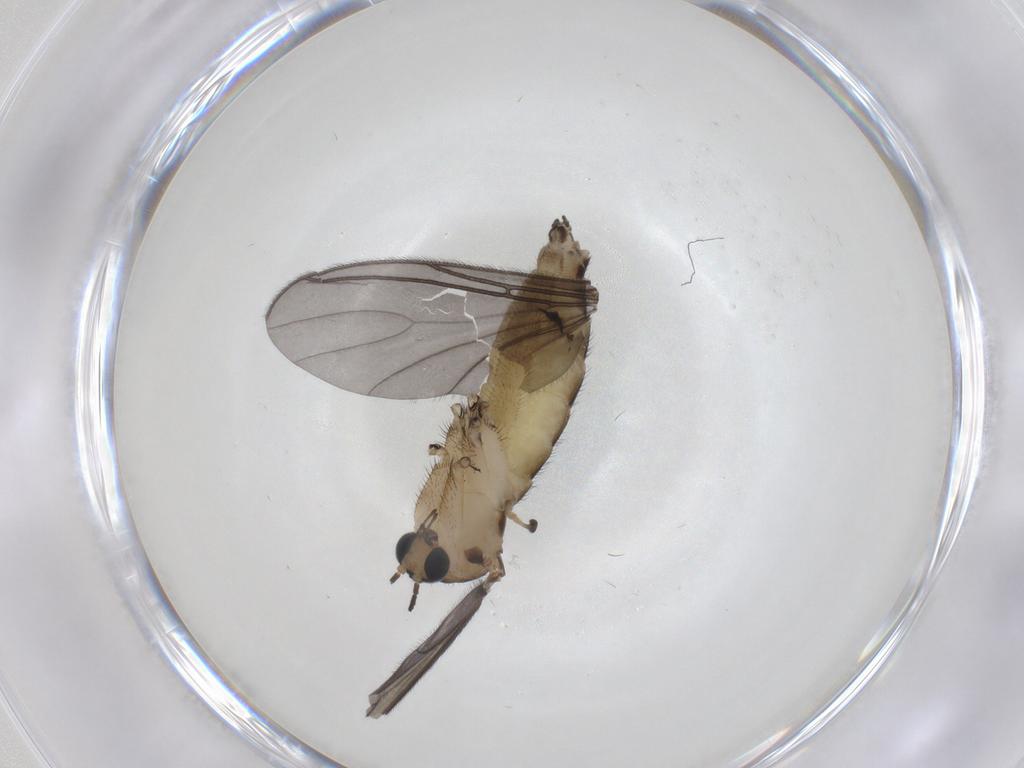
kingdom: Animalia
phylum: Arthropoda
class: Insecta
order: Diptera
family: Sciaridae
